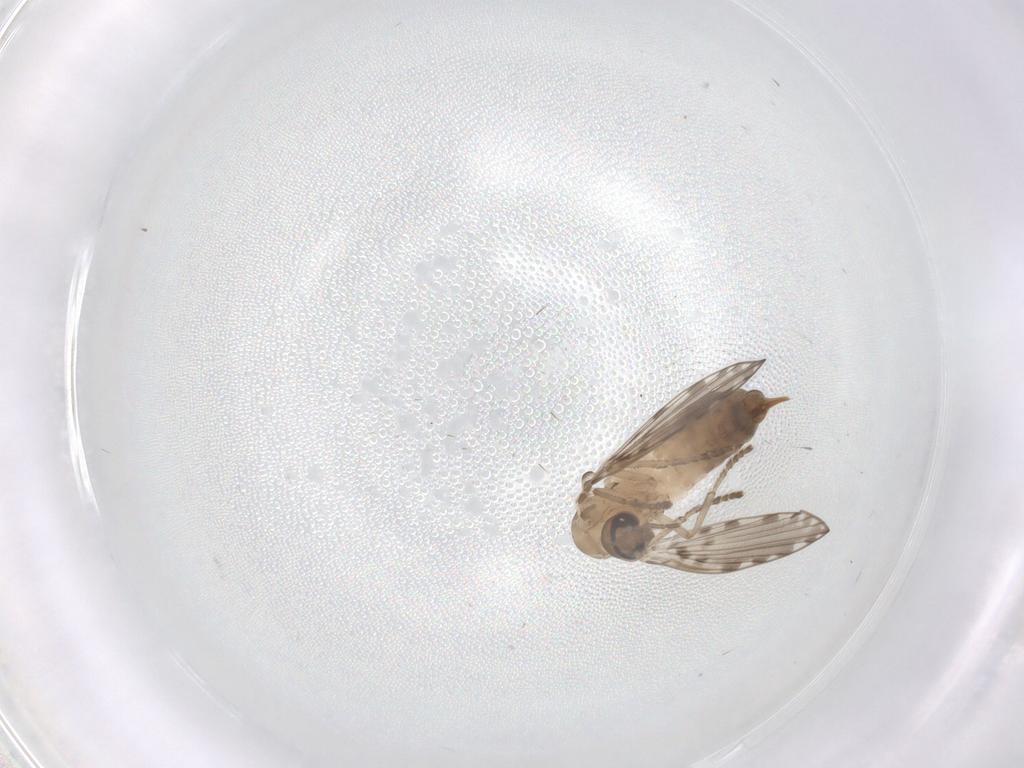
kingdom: Animalia
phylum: Arthropoda
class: Insecta
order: Diptera
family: Psychodidae
